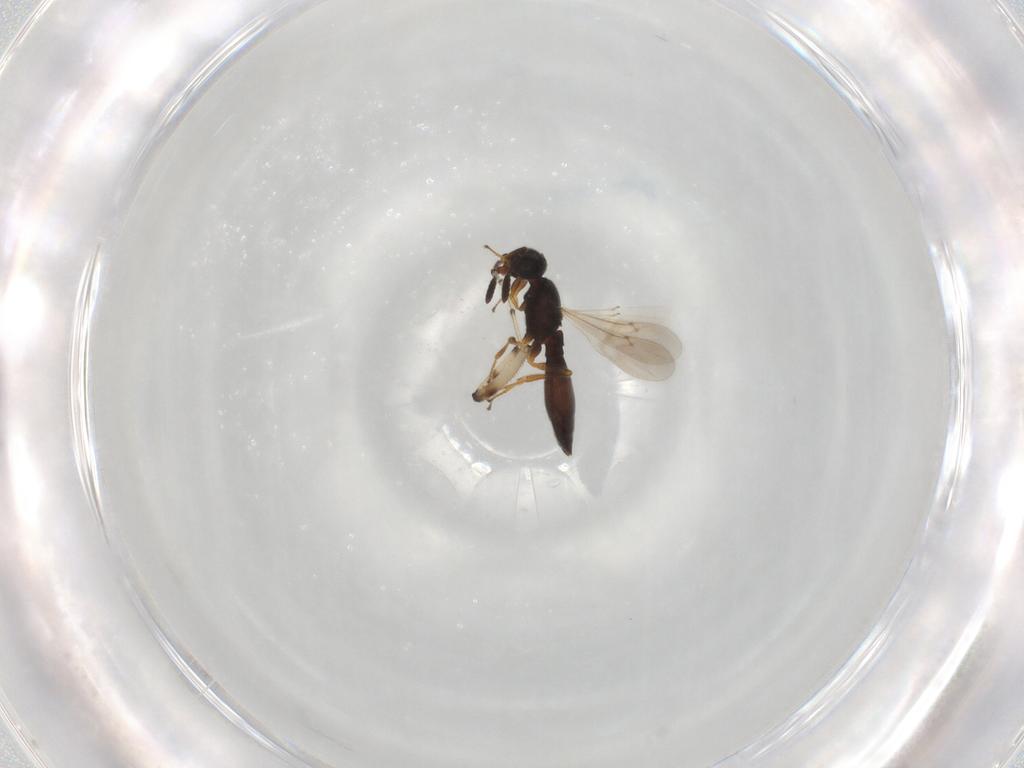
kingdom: Animalia
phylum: Arthropoda
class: Insecta
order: Hymenoptera
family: Scelionidae
